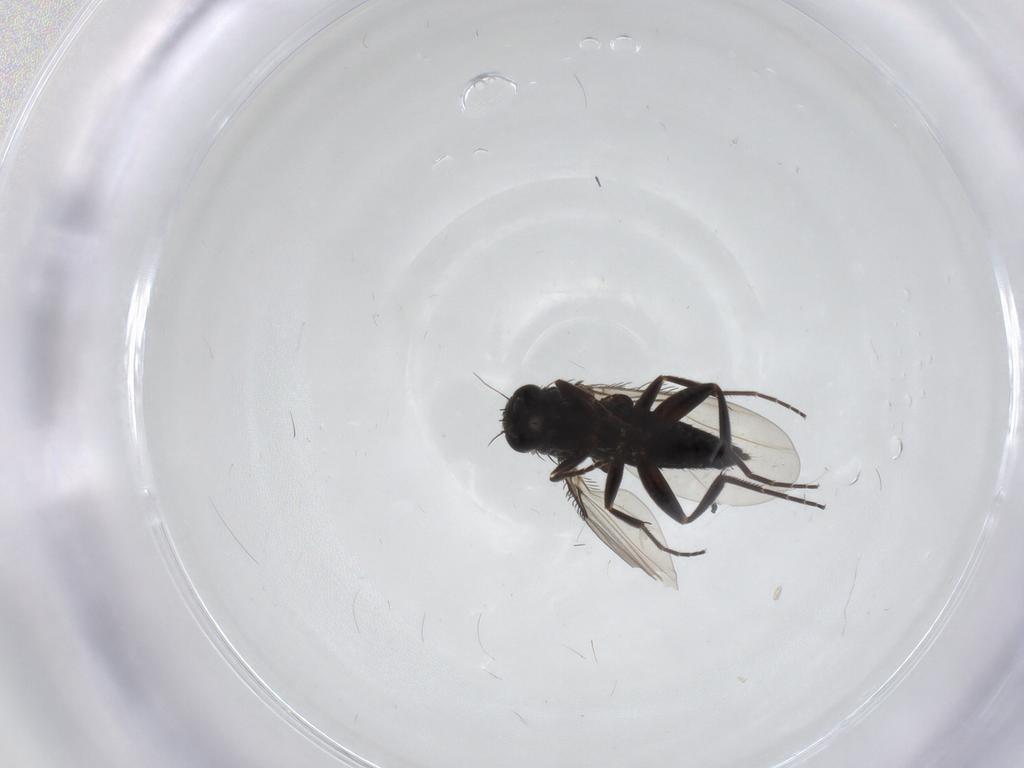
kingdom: Animalia
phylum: Arthropoda
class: Insecta
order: Diptera
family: Phoridae
